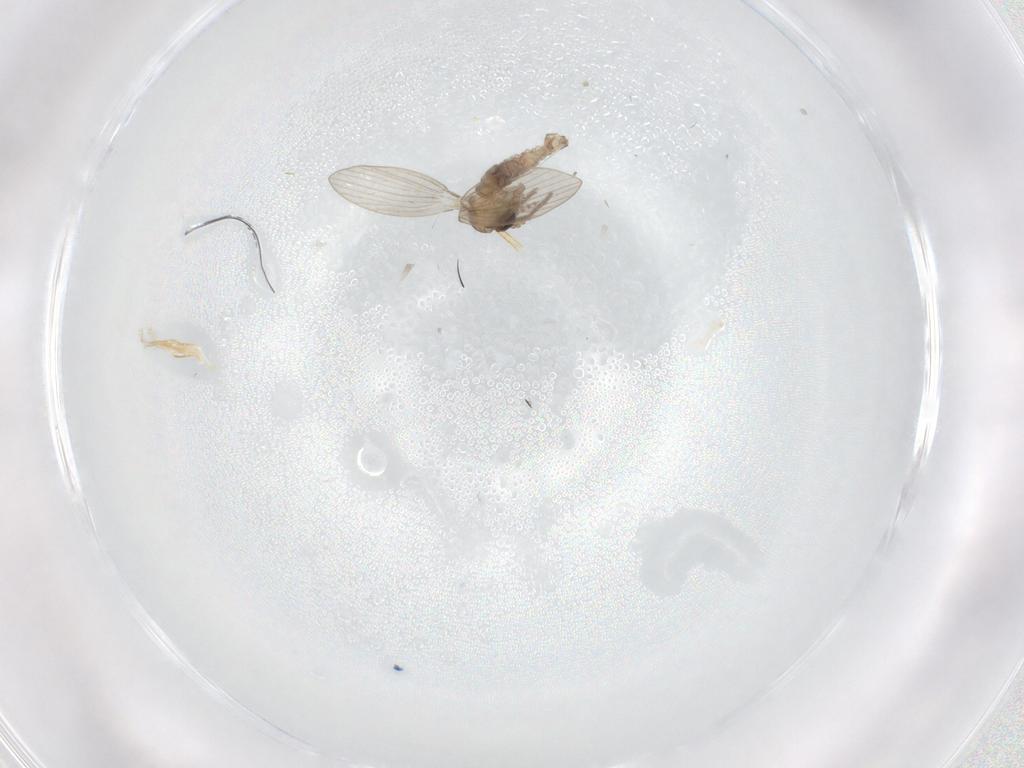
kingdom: Animalia
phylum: Arthropoda
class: Insecta
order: Diptera
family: Psychodidae
